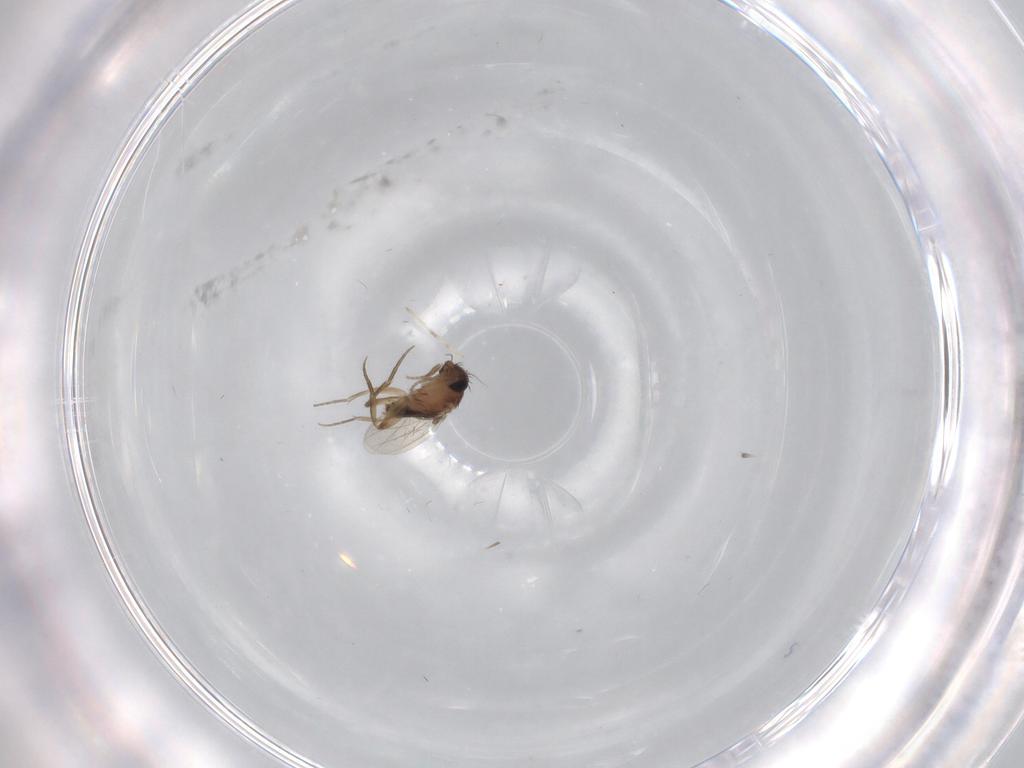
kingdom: Animalia
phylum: Arthropoda
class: Insecta
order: Diptera
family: Cecidomyiidae
